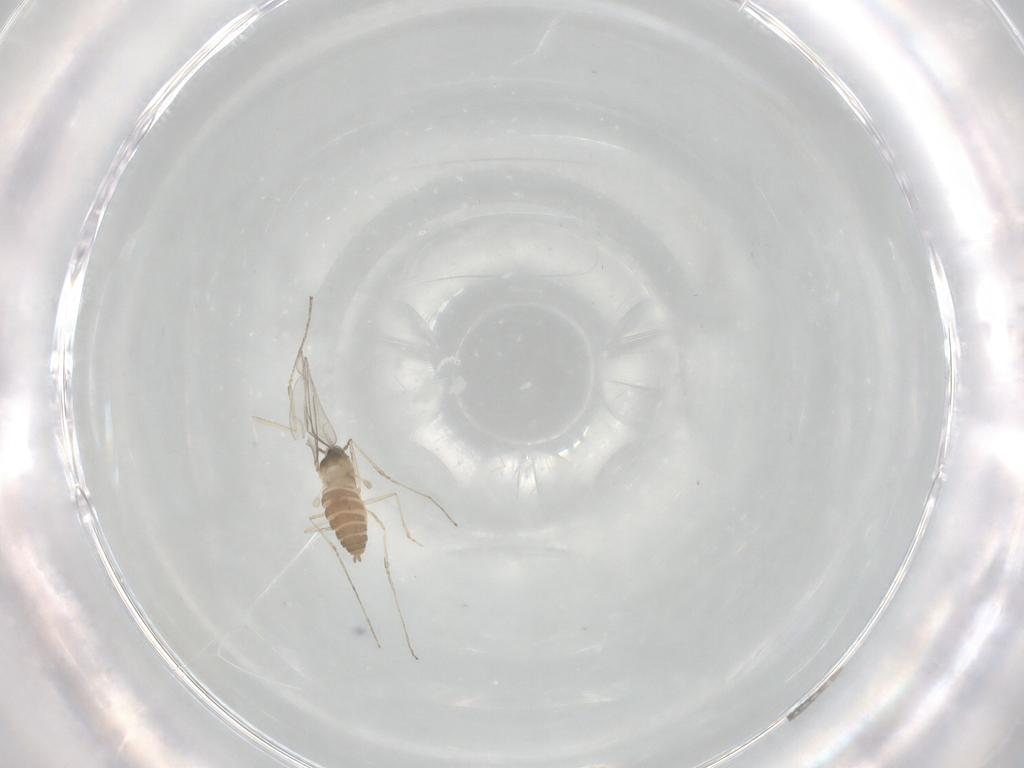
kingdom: Animalia
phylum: Arthropoda
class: Insecta
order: Diptera
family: Cecidomyiidae
